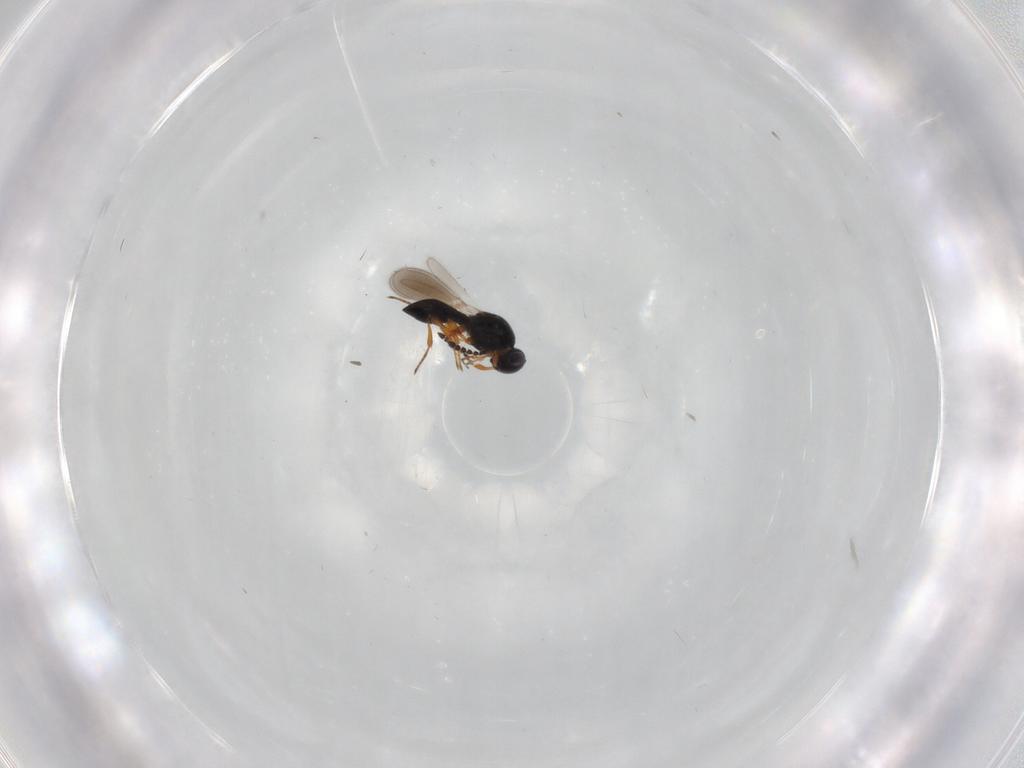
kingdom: Animalia
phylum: Arthropoda
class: Insecta
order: Hymenoptera
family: Platygastridae
